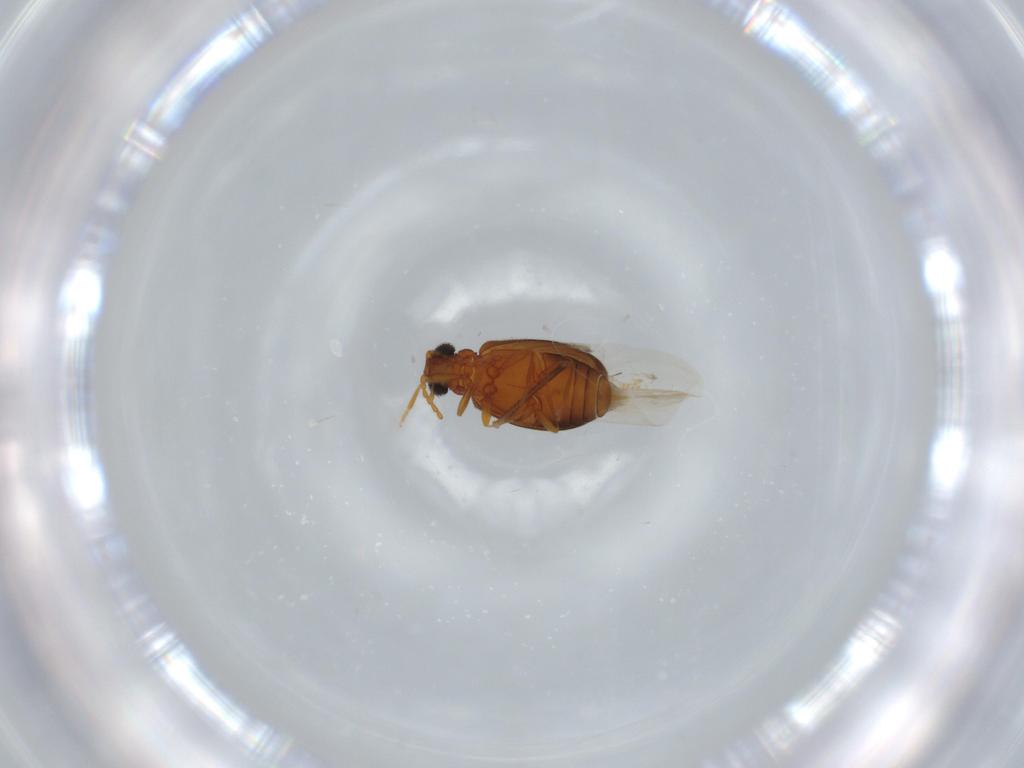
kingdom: Animalia
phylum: Arthropoda
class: Insecta
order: Coleoptera
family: Aderidae
